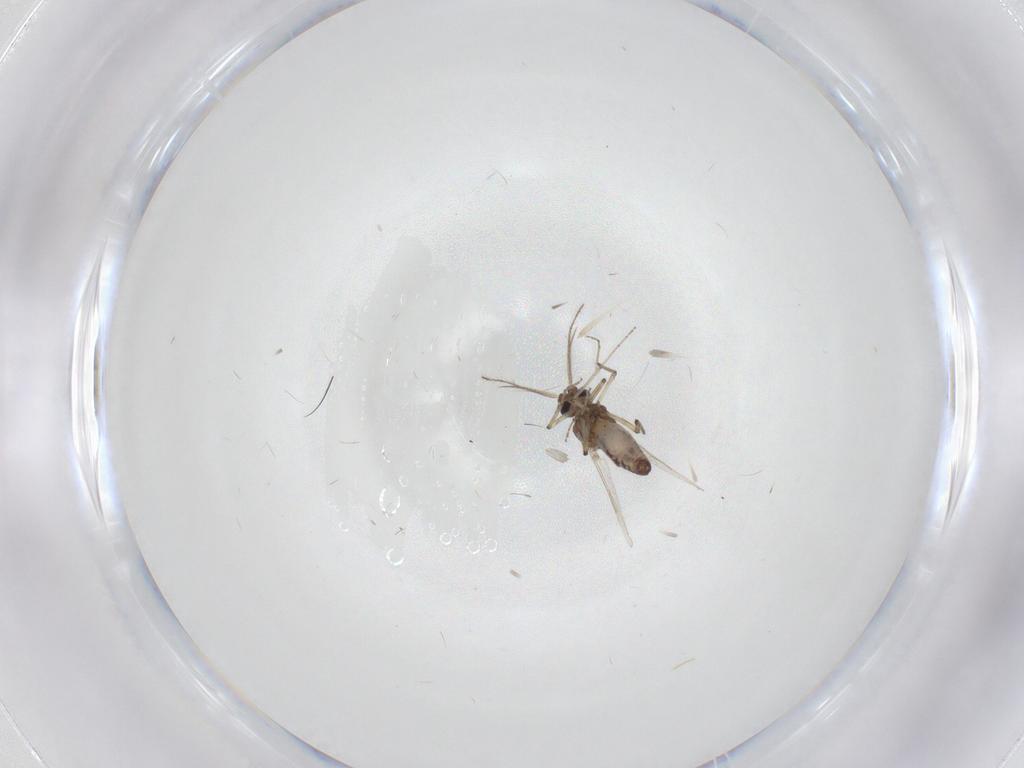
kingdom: Animalia
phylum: Arthropoda
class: Insecta
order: Diptera
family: Ceratopogonidae
